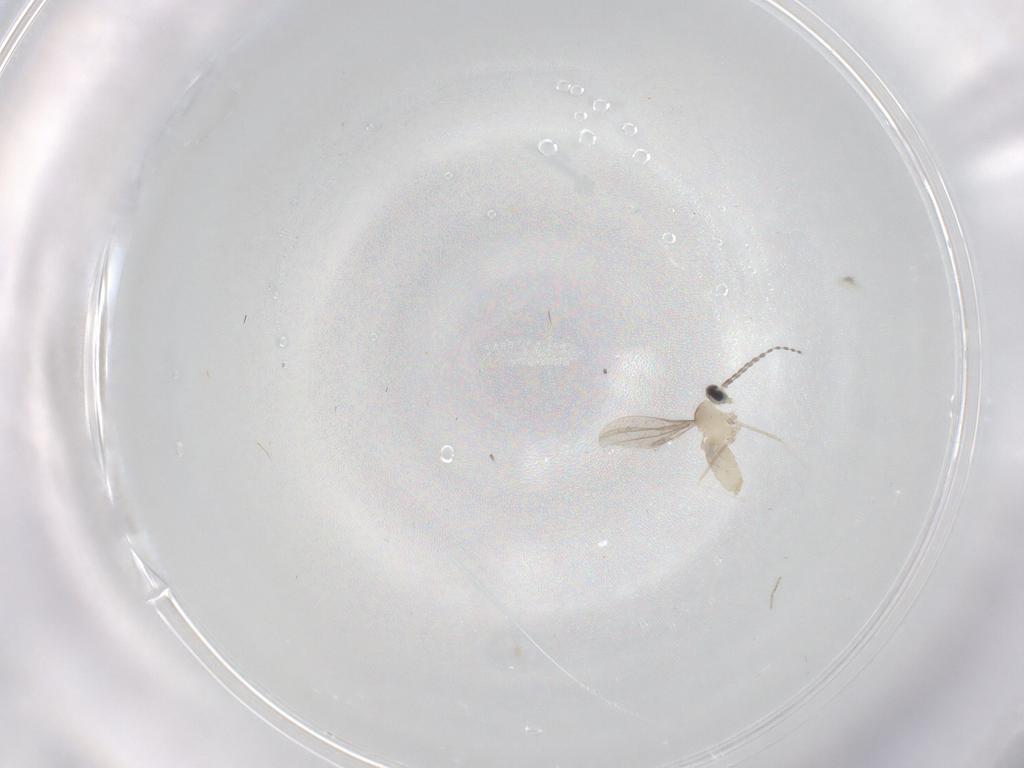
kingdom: Animalia
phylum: Arthropoda
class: Insecta
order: Diptera
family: Cecidomyiidae
